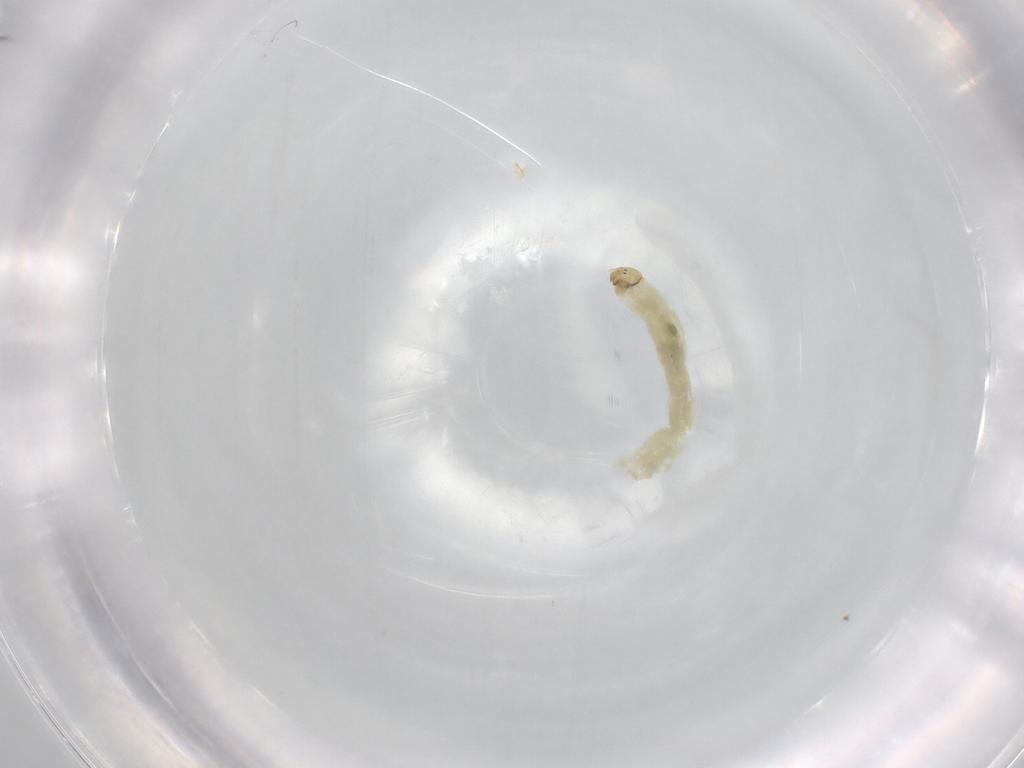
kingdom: Animalia
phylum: Arthropoda
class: Insecta
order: Diptera
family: Chironomidae
